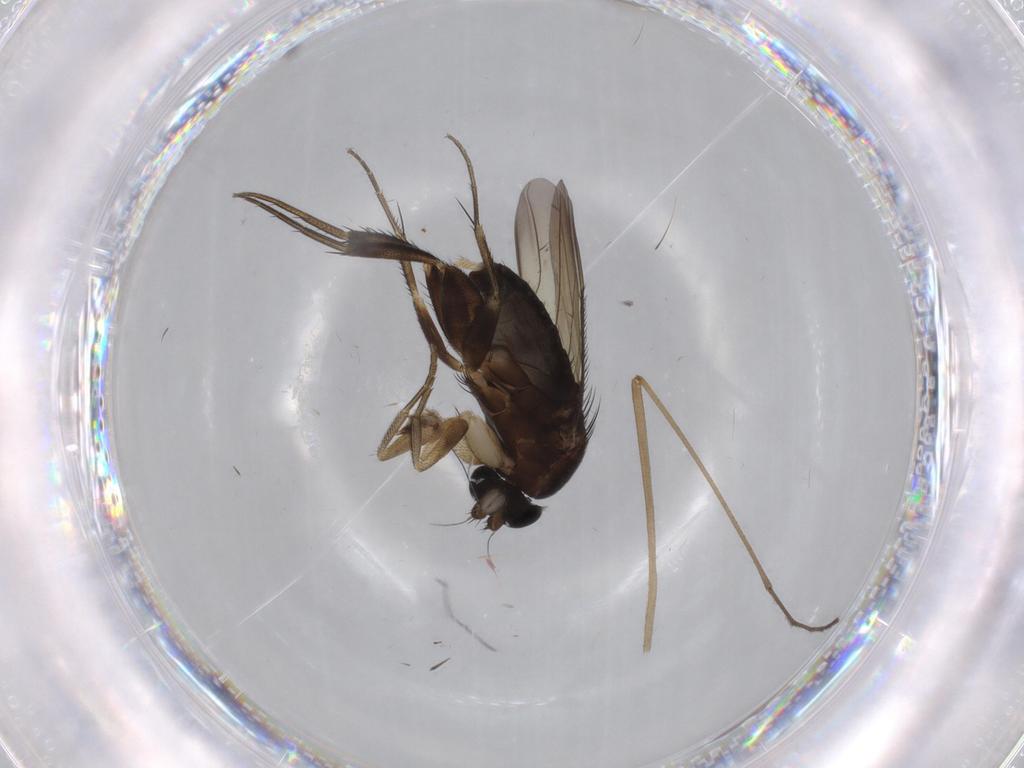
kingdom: Animalia
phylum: Arthropoda
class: Insecta
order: Diptera
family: Phoridae
